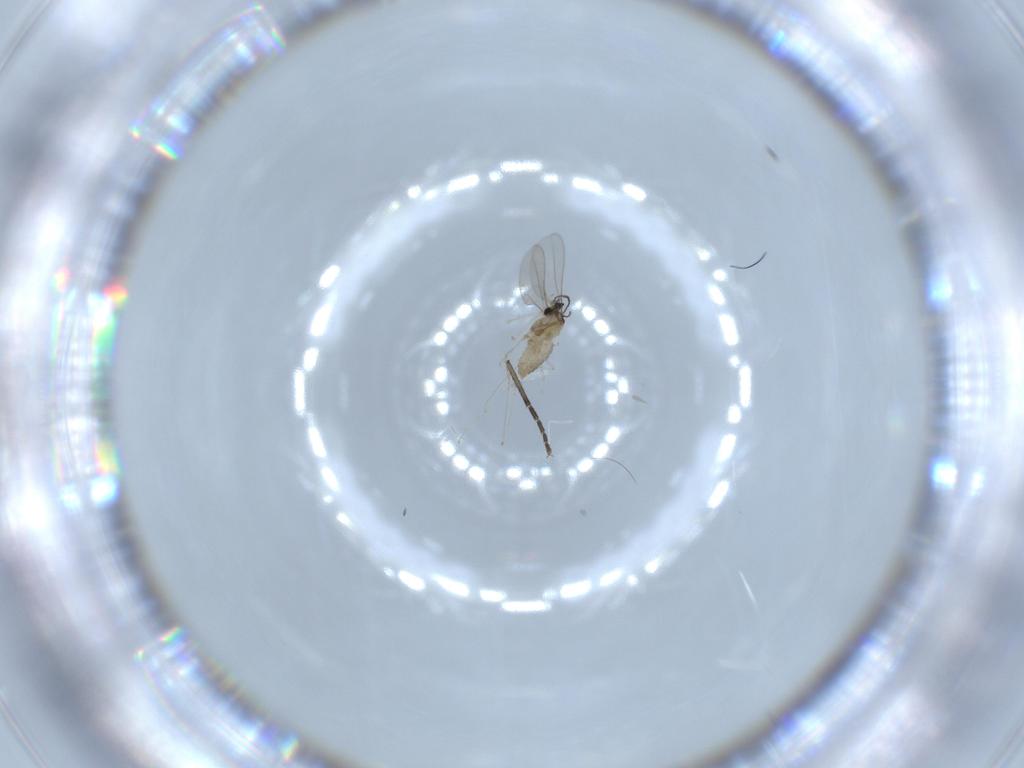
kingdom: Animalia
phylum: Arthropoda
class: Insecta
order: Diptera
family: Cecidomyiidae
